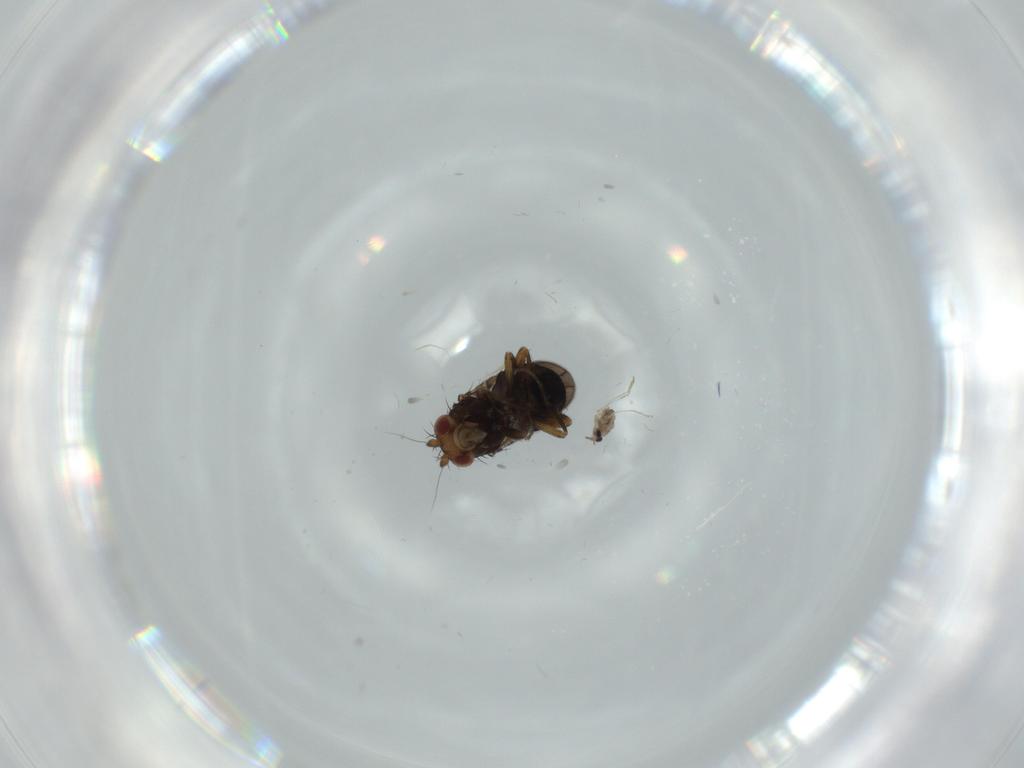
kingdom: Animalia
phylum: Arthropoda
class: Insecta
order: Diptera
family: Cecidomyiidae
